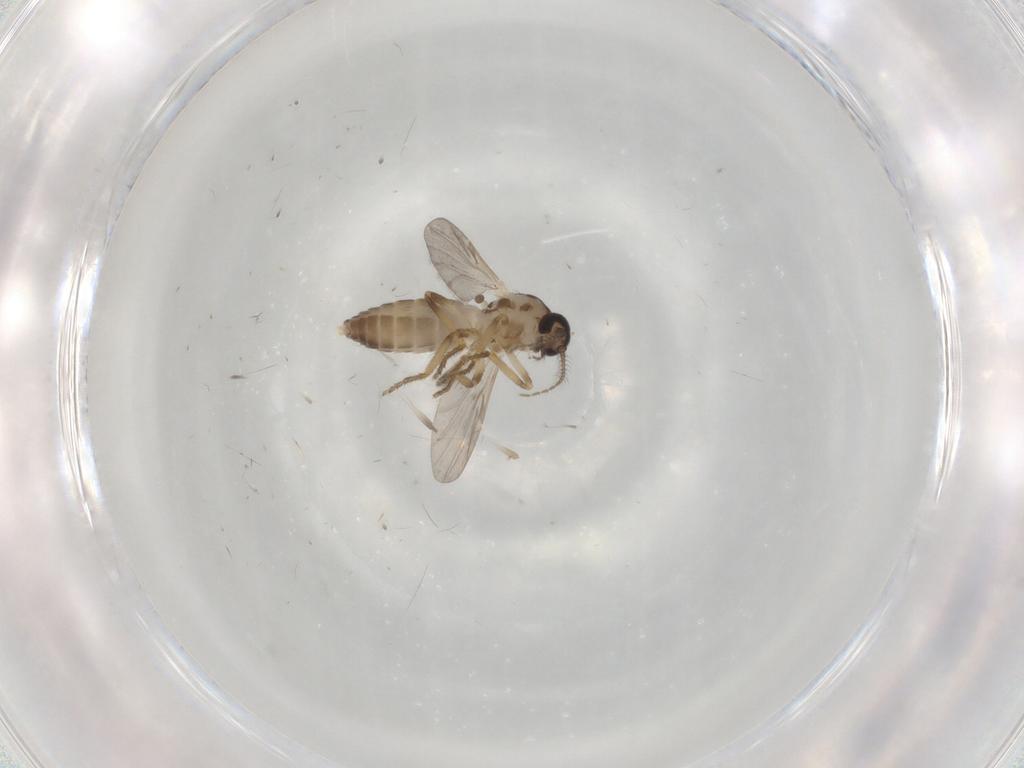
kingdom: Animalia
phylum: Arthropoda
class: Insecta
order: Diptera
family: Ceratopogonidae
